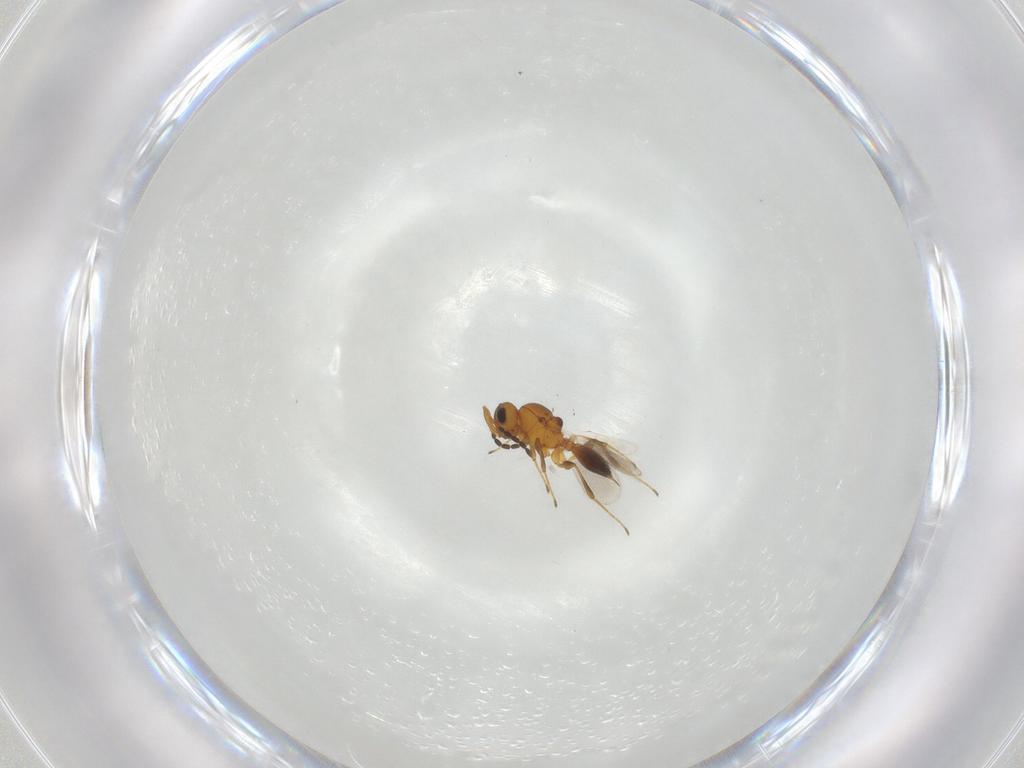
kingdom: Animalia
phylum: Arthropoda
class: Insecta
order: Hymenoptera
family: Platygastridae
